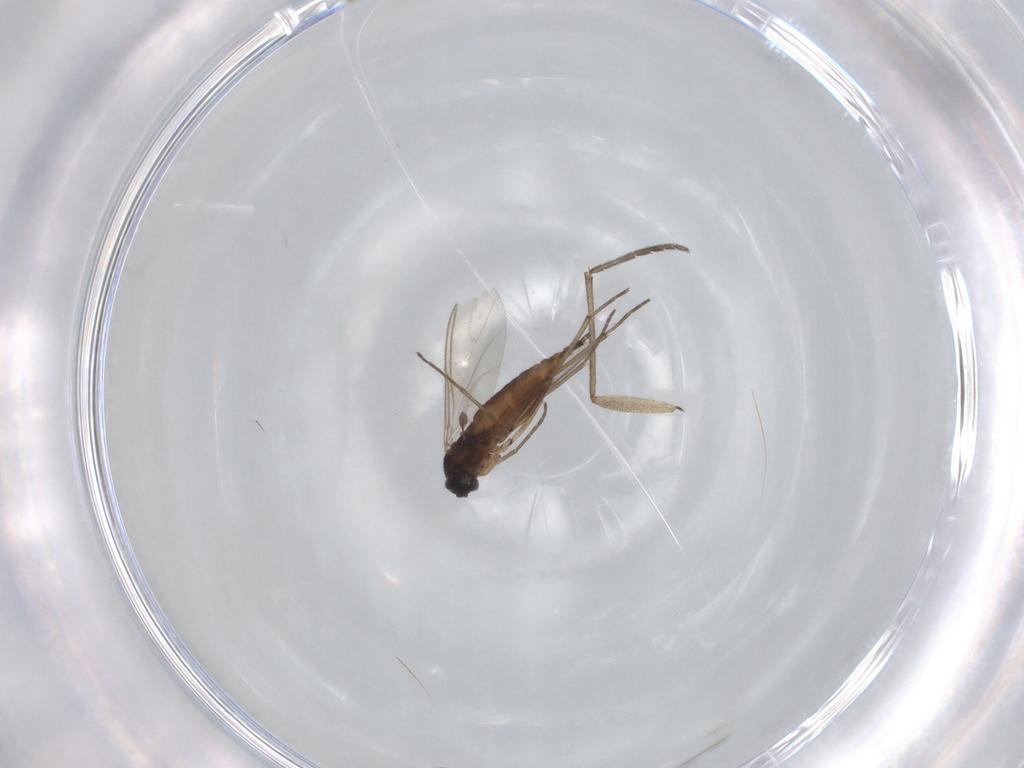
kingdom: Animalia
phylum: Arthropoda
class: Insecta
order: Diptera
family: Sciaridae
